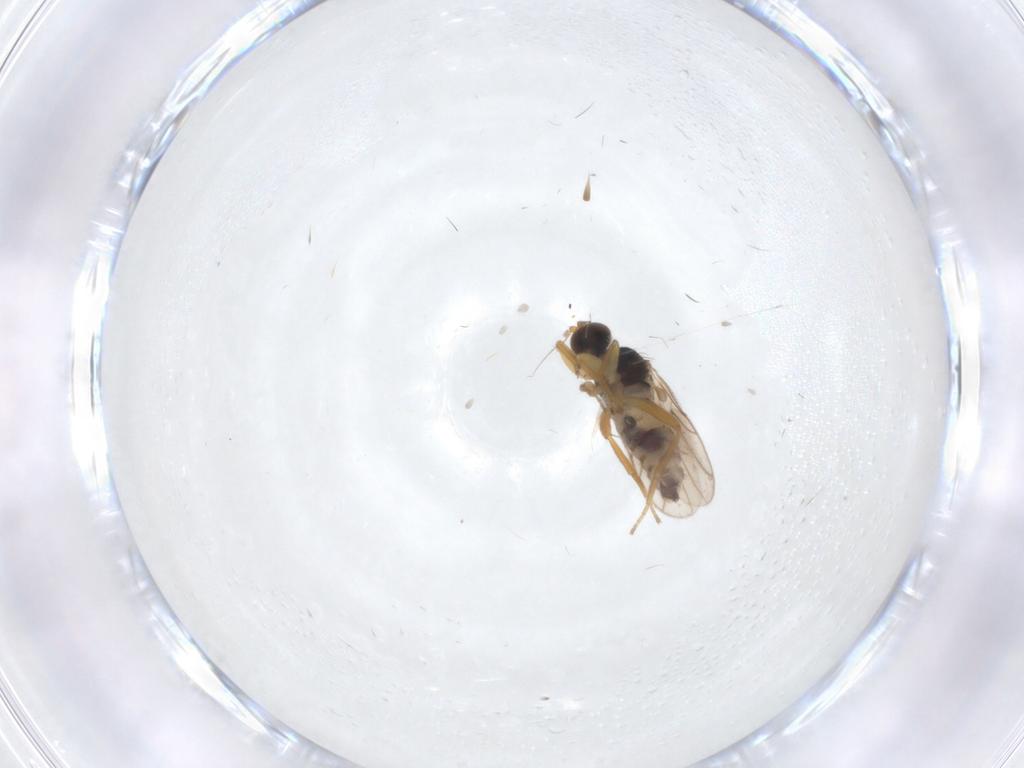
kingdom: Animalia
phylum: Arthropoda
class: Insecta
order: Diptera
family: Hybotidae
